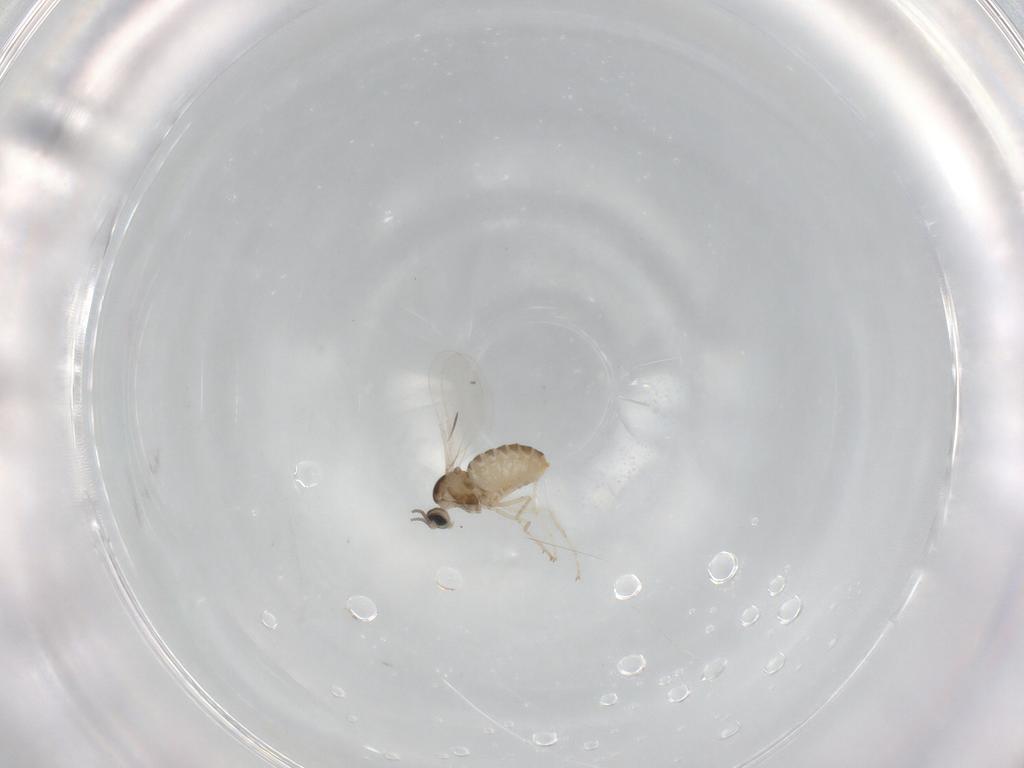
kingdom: Animalia
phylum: Arthropoda
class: Insecta
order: Diptera
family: Cecidomyiidae
